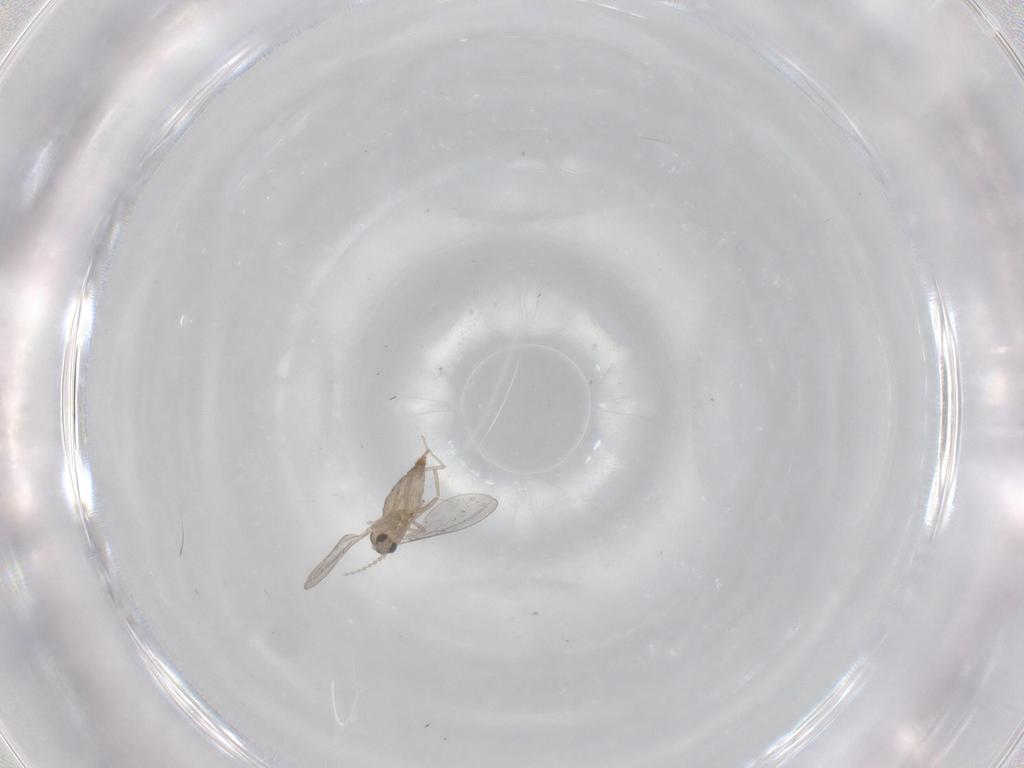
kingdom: Animalia
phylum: Arthropoda
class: Insecta
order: Diptera
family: Cecidomyiidae
